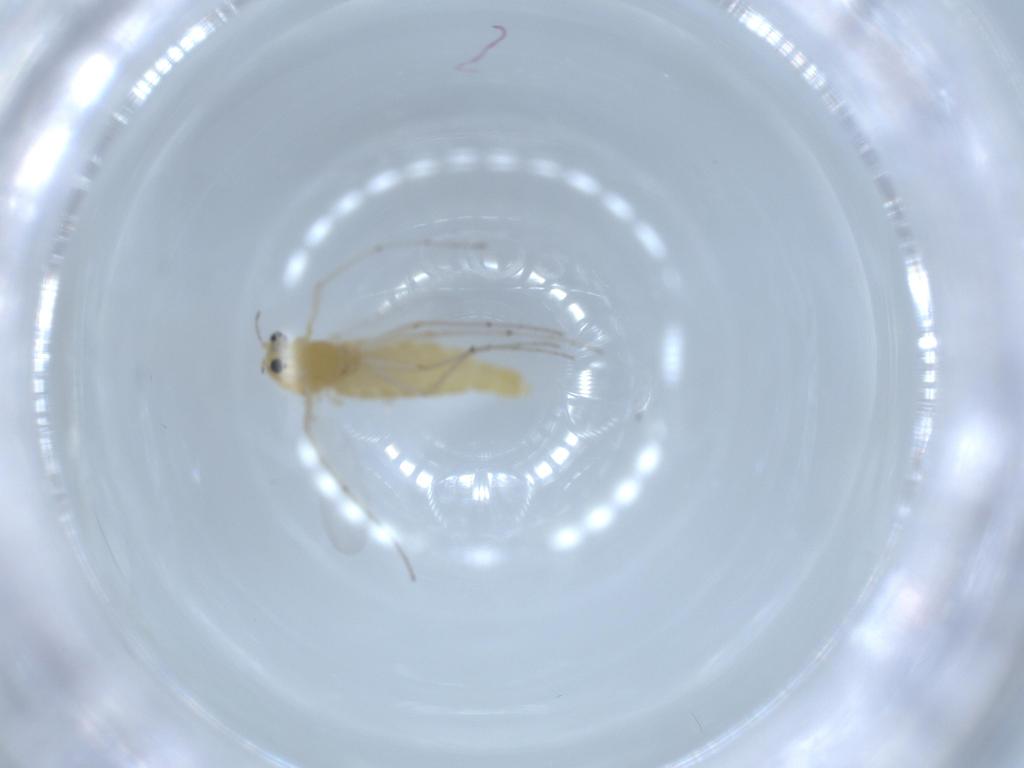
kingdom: Animalia
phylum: Arthropoda
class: Insecta
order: Diptera
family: Chironomidae
